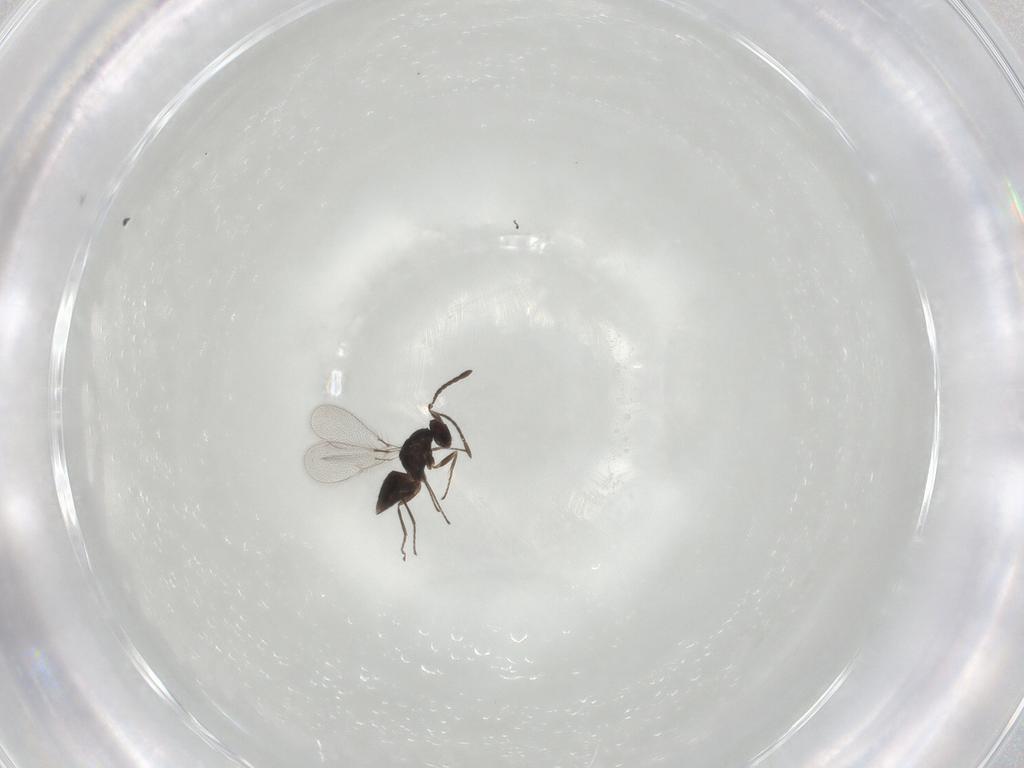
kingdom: Animalia
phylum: Arthropoda
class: Insecta
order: Hymenoptera
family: Mymaridae
